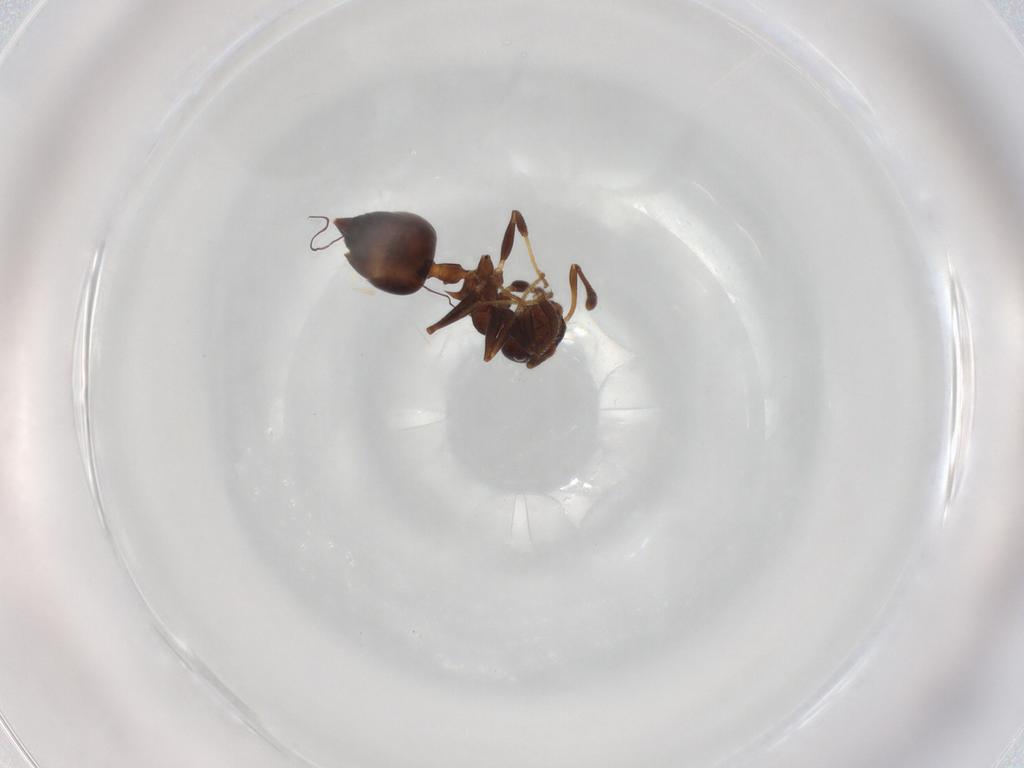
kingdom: Animalia
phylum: Arthropoda
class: Insecta
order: Hymenoptera
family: Formicidae
